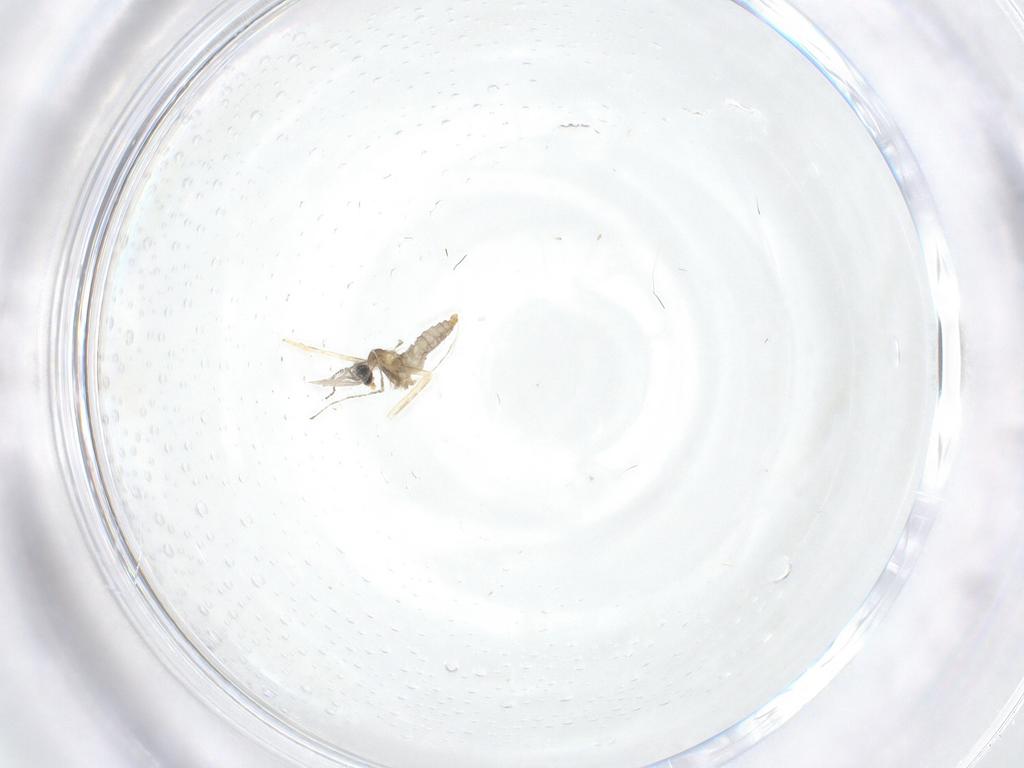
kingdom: Animalia
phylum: Arthropoda
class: Insecta
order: Diptera
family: Cecidomyiidae
